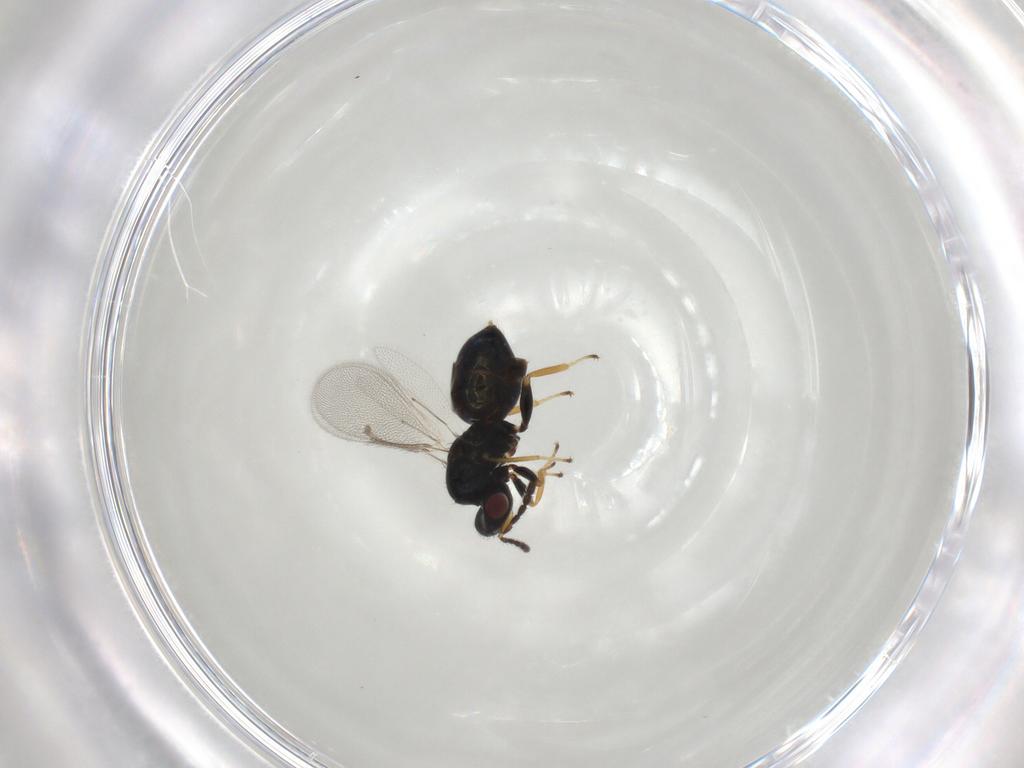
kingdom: Animalia
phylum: Arthropoda
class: Insecta
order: Hymenoptera
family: Eulophidae
